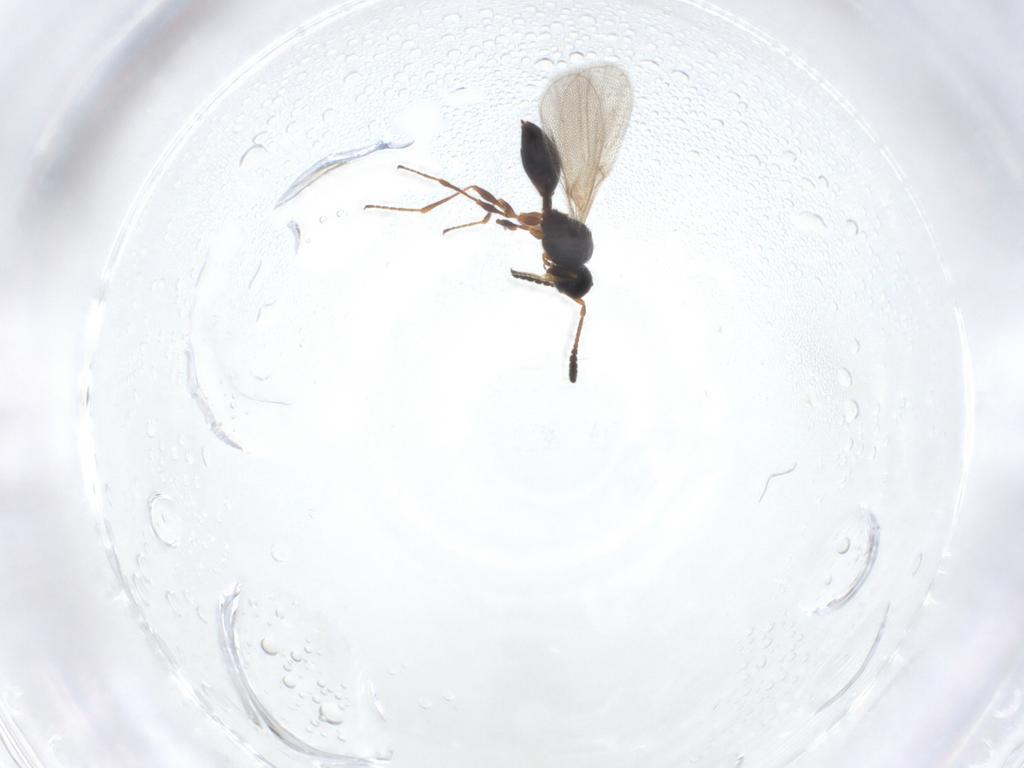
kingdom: Animalia
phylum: Arthropoda
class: Insecta
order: Hymenoptera
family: Diapriidae
